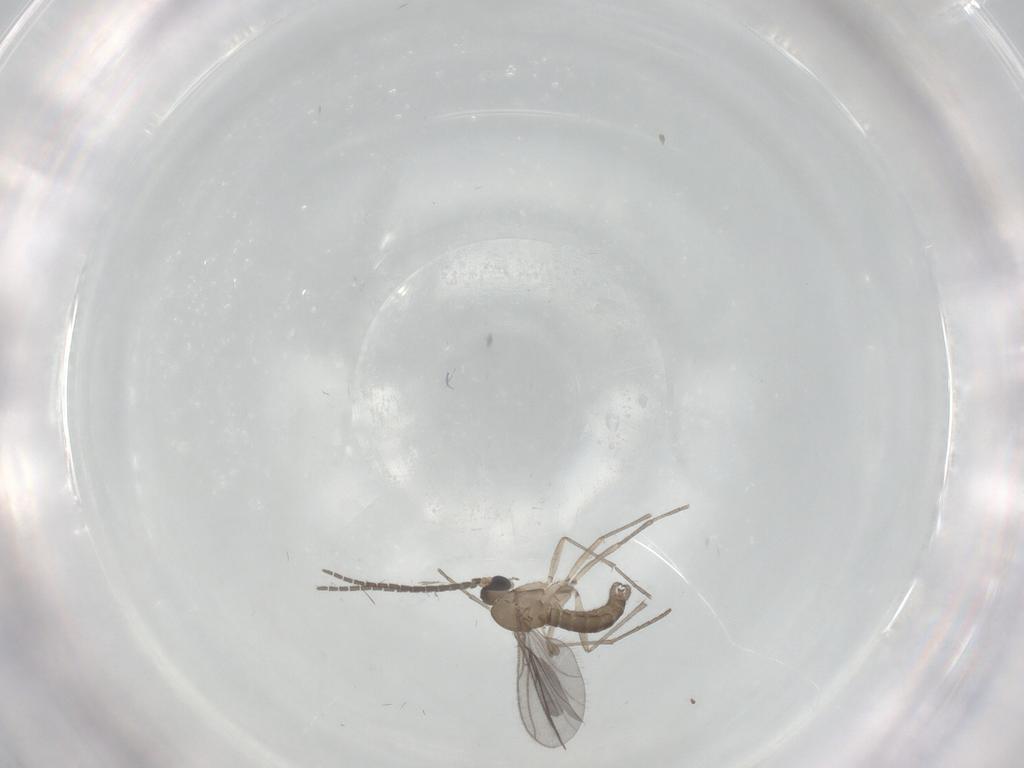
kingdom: Animalia
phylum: Arthropoda
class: Insecta
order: Diptera
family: Sciaridae
